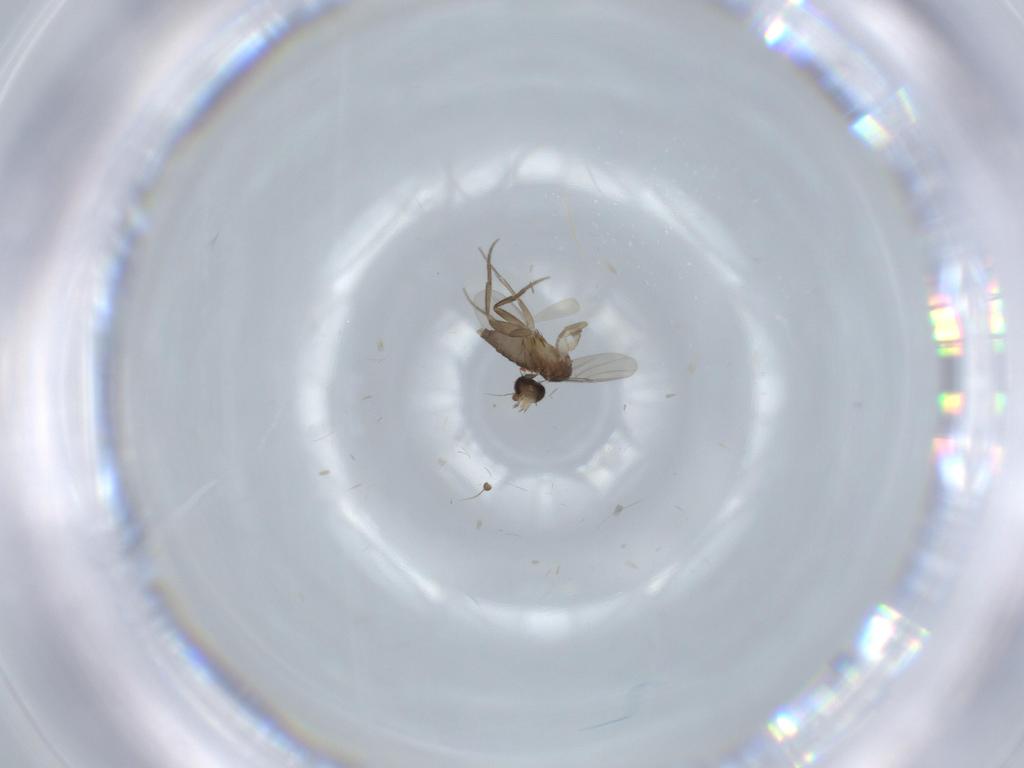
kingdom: Animalia
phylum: Arthropoda
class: Insecta
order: Diptera
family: Phoridae
